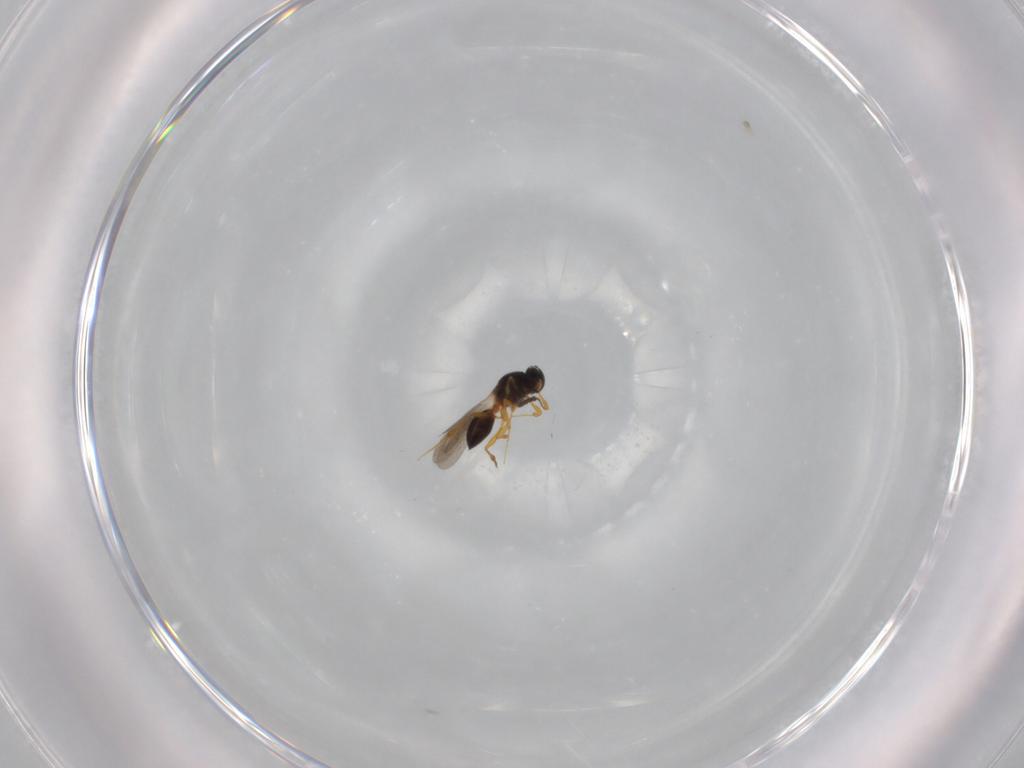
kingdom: Animalia
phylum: Arthropoda
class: Insecta
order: Hymenoptera
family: Platygastridae
